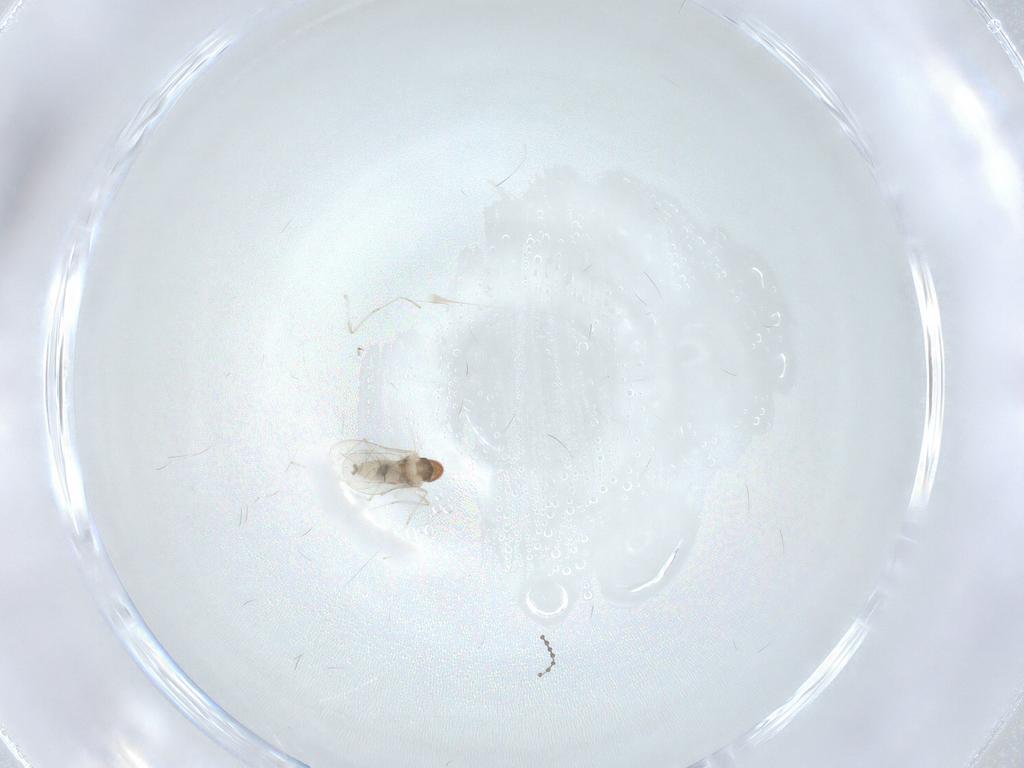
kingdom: Animalia
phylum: Arthropoda
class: Insecta
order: Diptera
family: Cecidomyiidae
